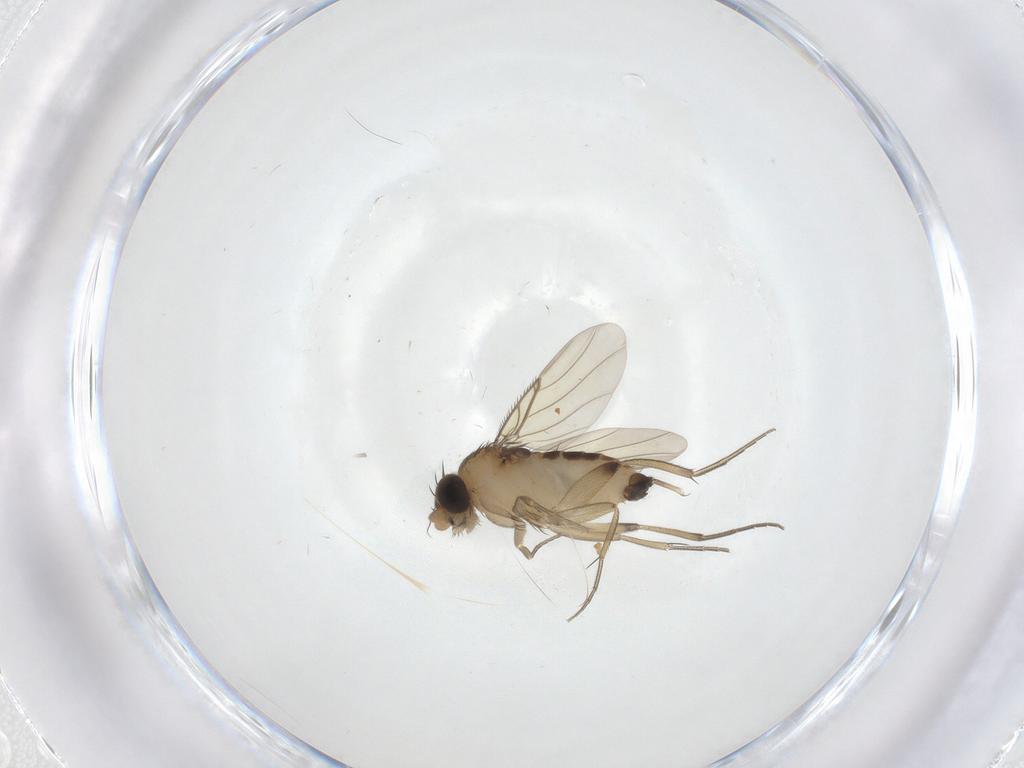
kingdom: Animalia
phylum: Arthropoda
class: Insecta
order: Diptera
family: Phoridae
